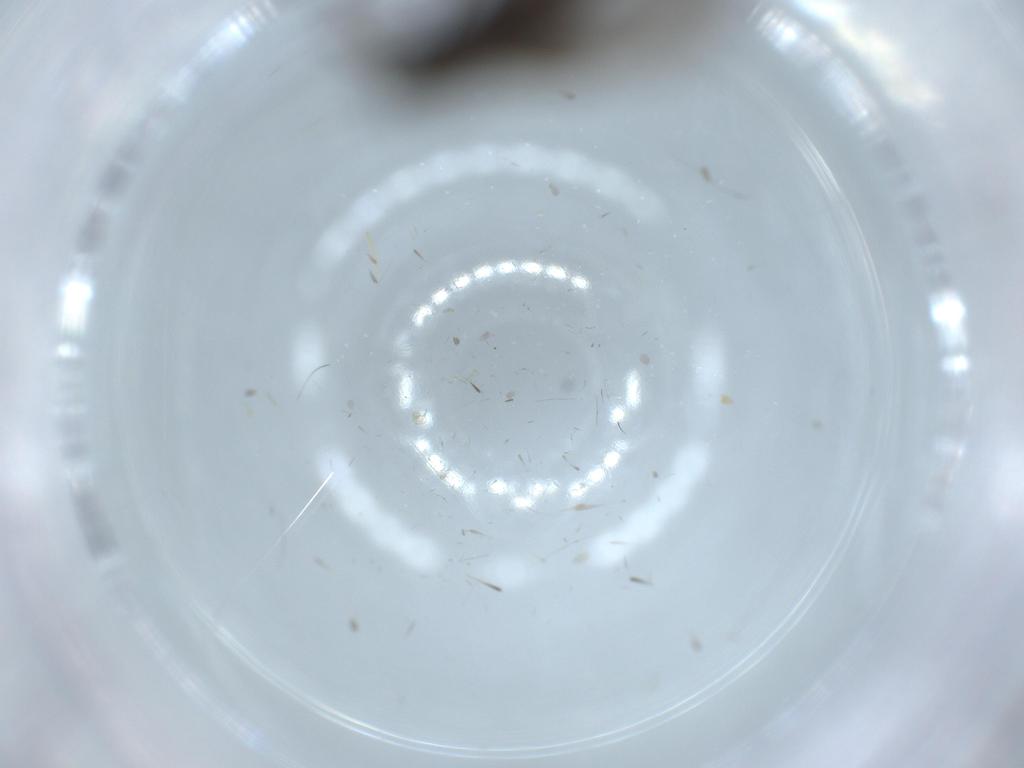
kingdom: Animalia
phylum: Arthropoda
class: Insecta
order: Diptera
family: Sciaridae
